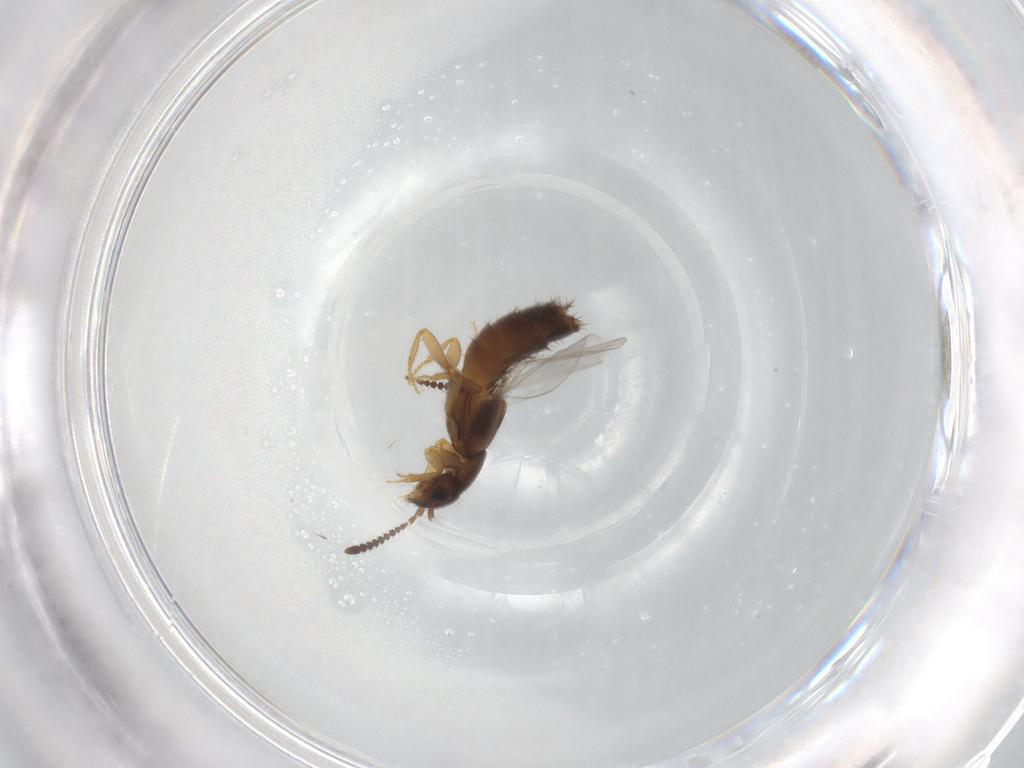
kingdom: Animalia
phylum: Arthropoda
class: Insecta
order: Coleoptera
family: Staphylinidae
